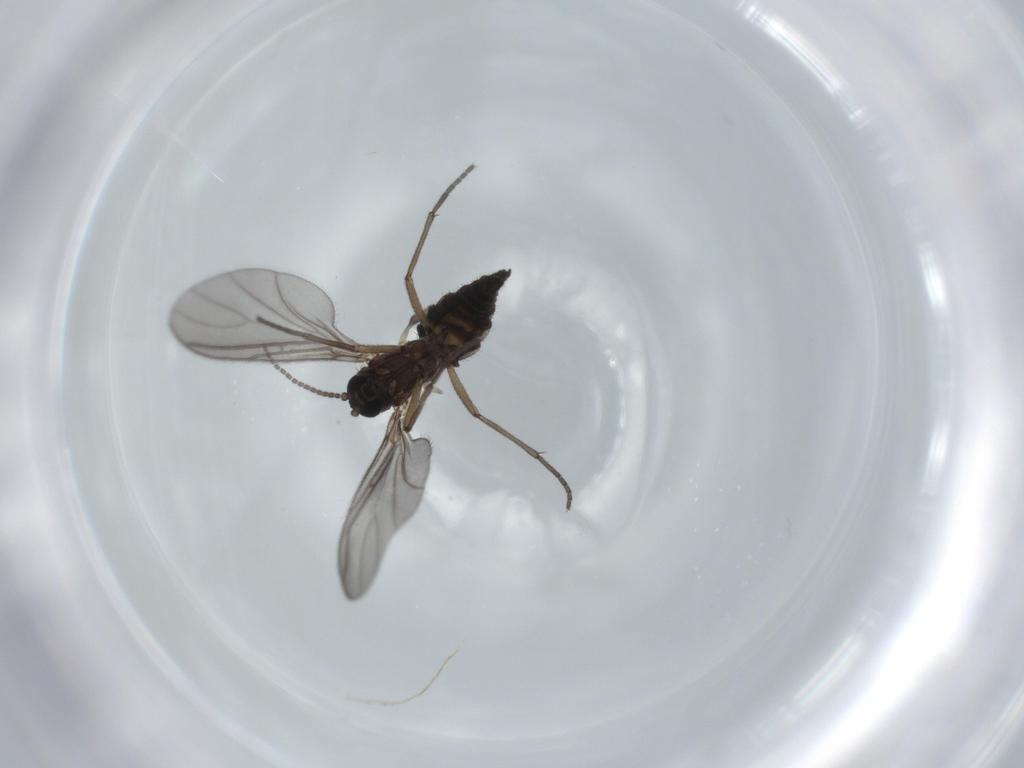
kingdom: Animalia
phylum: Arthropoda
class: Insecta
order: Diptera
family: Sciaridae
